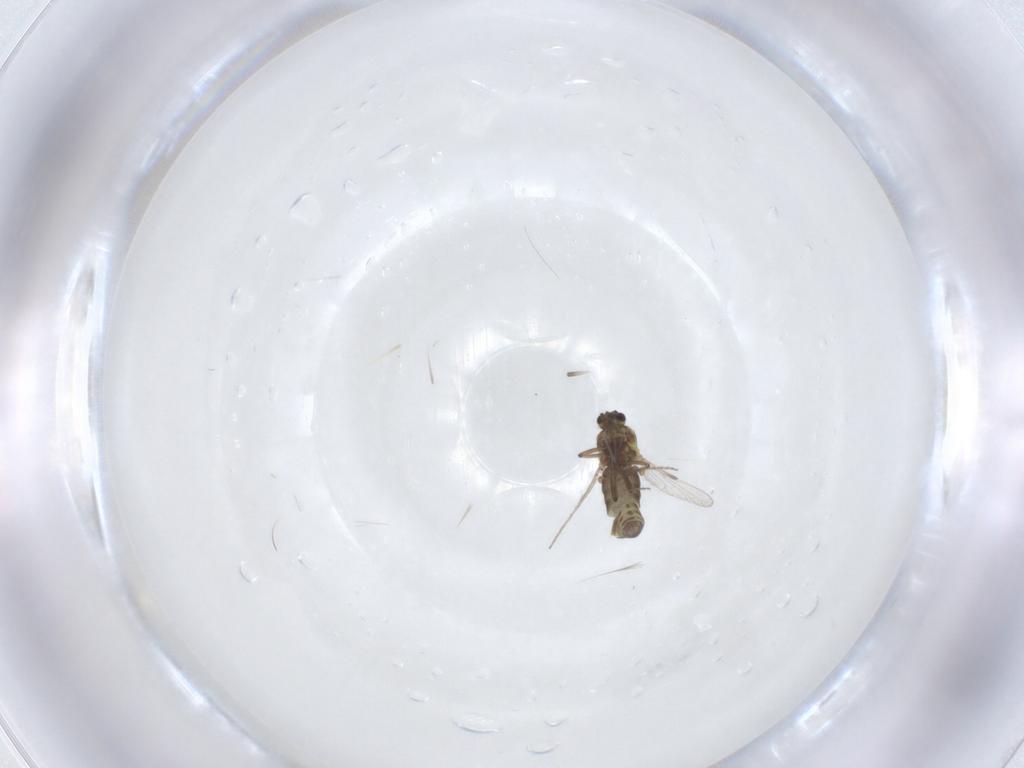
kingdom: Animalia
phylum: Arthropoda
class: Insecta
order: Diptera
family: Ceratopogonidae
